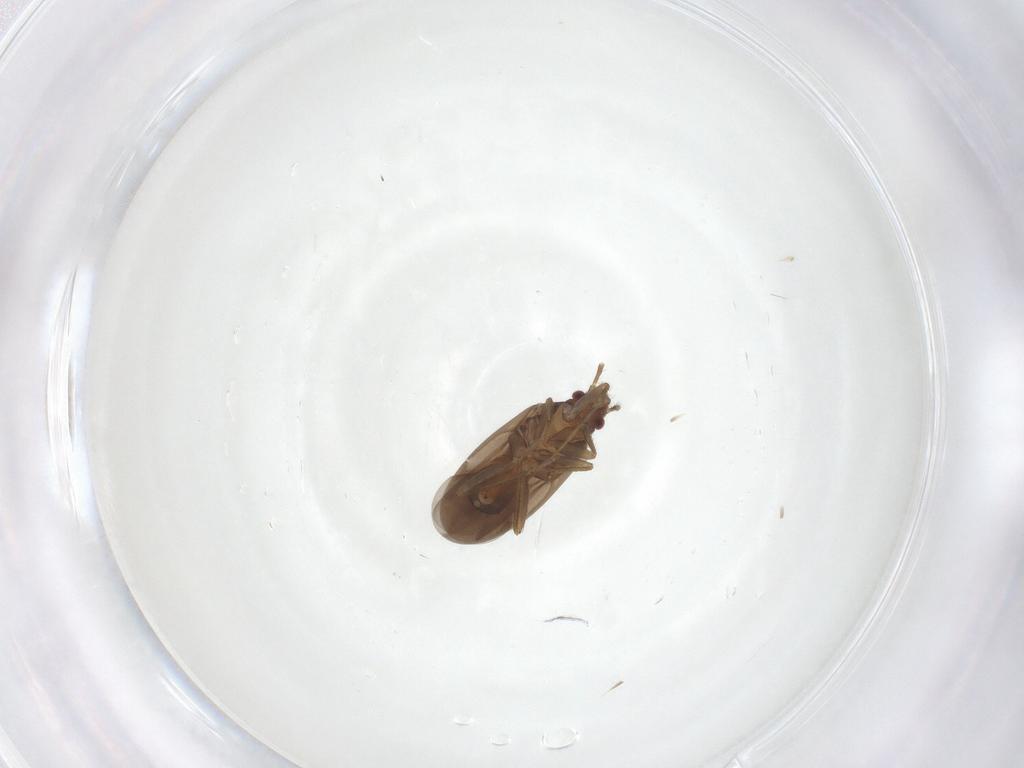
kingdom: Animalia
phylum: Arthropoda
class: Insecta
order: Hemiptera
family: Ceratocombidae
